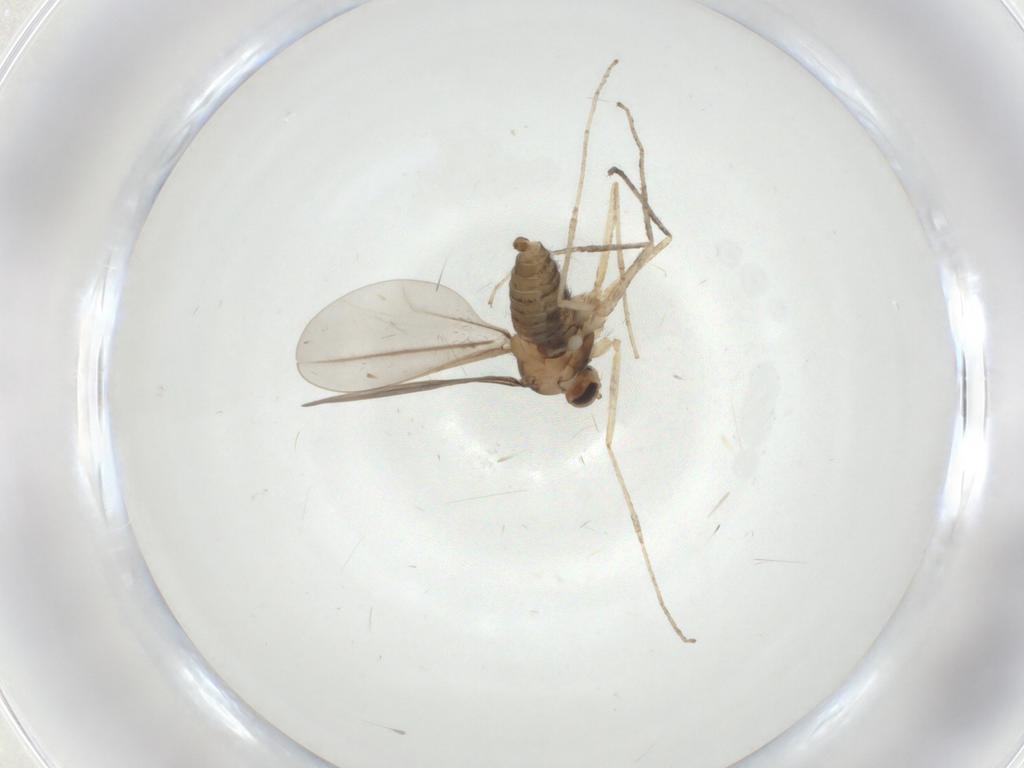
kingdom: Animalia
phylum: Arthropoda
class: Insecta
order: Diptera
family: Cecidomyiidae
